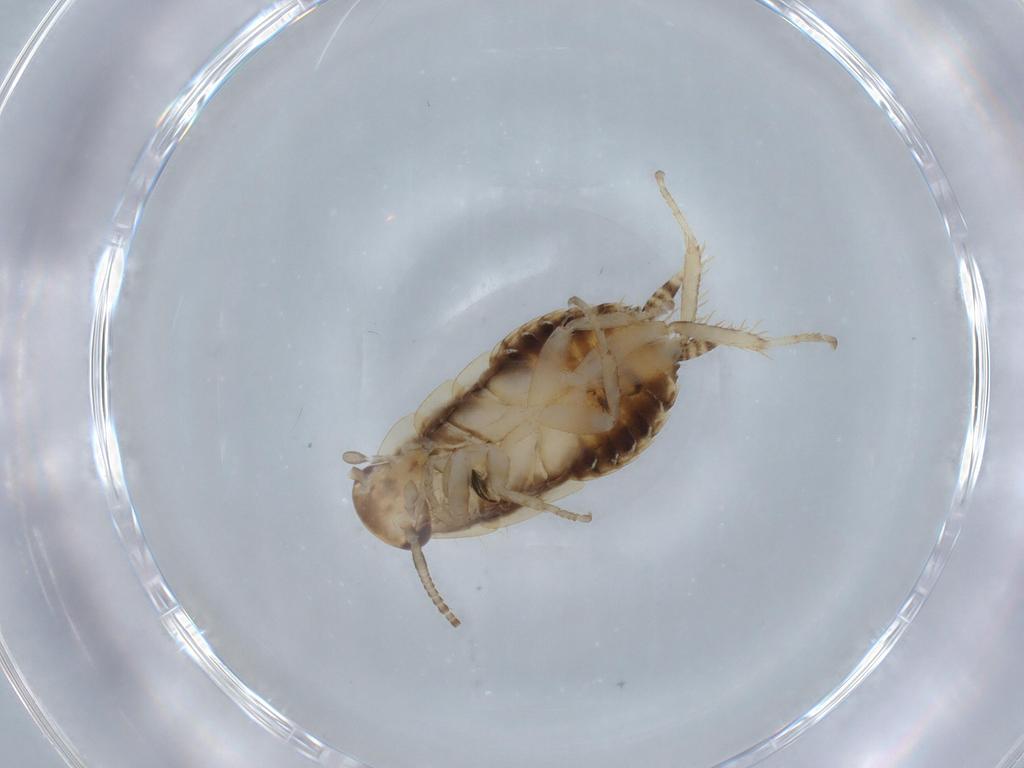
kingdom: Animalia
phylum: Arthropoda
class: Insecta
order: Blattodea
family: Ectobiidae
